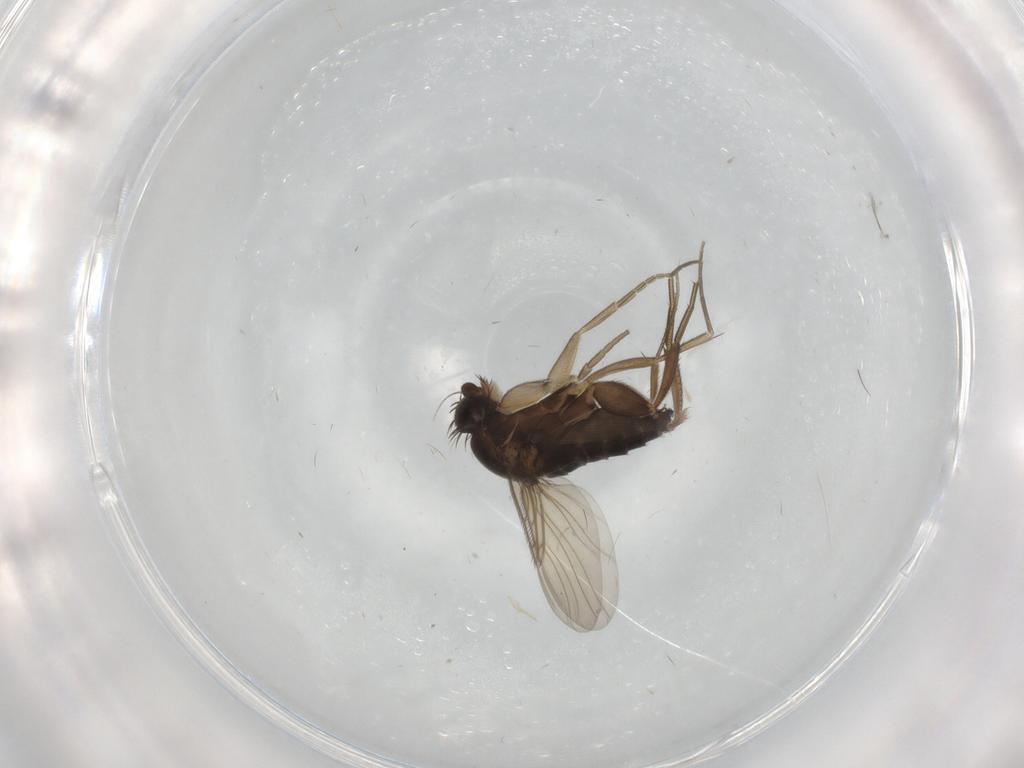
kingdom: Animalia
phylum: Arthropoda
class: Insecta
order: Diptera
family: Phoridae
